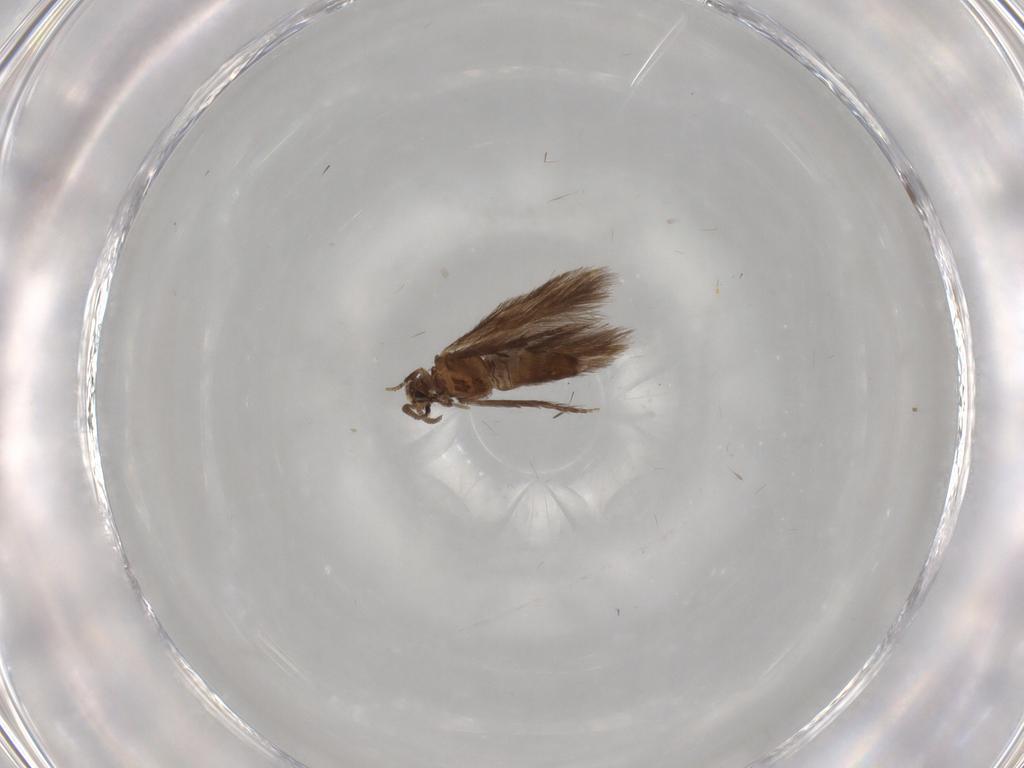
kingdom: Animalia
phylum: Arthropoda
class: Insecta
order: Trichoptera
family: Hydroptilidae
